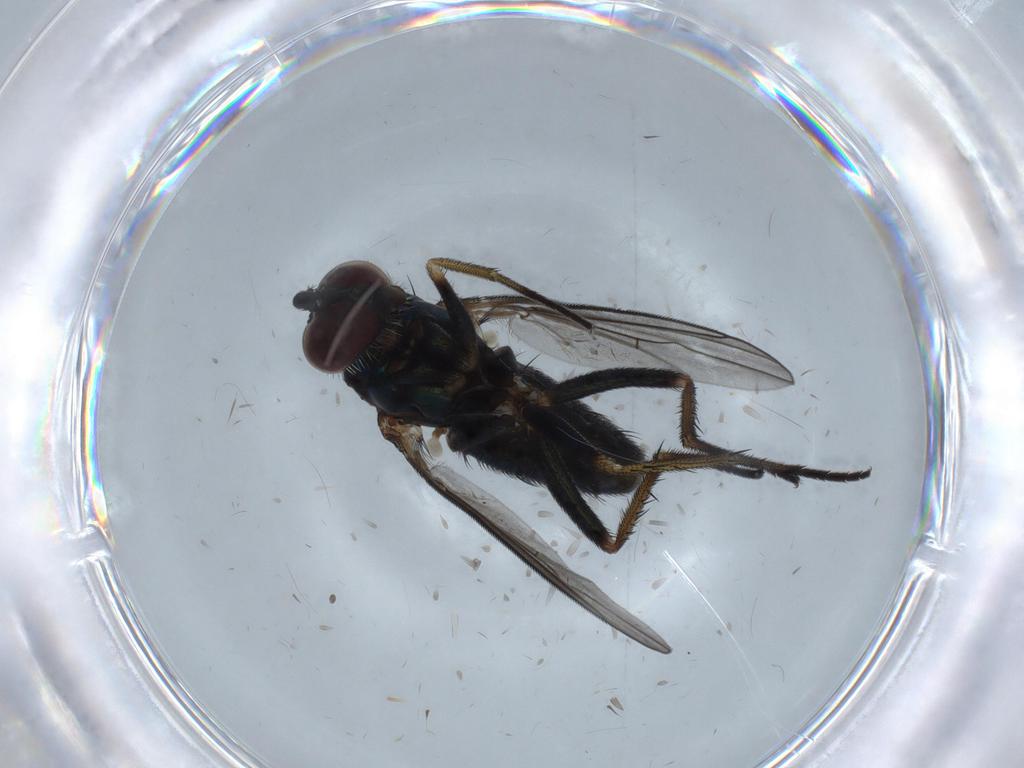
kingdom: Animalia
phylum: Arthropoda
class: Insecta
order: Diptera
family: Dolichopodidae
